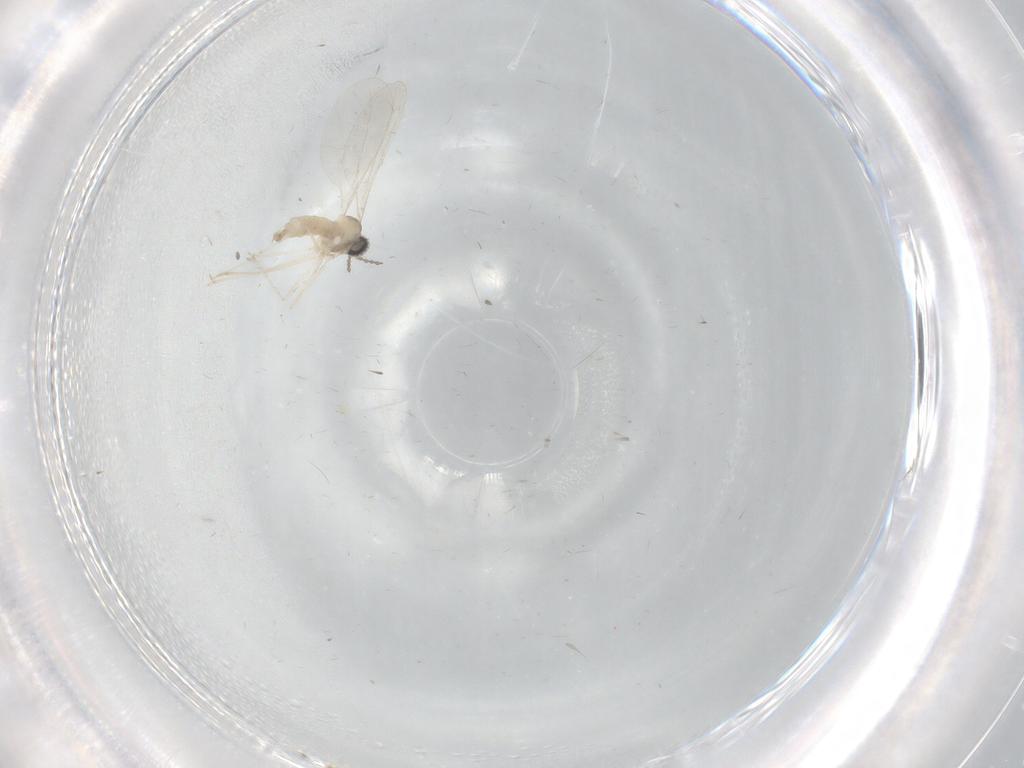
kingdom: Animalia
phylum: Arthropoda
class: Insecta
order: Diptera
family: Cecidomyiidae
